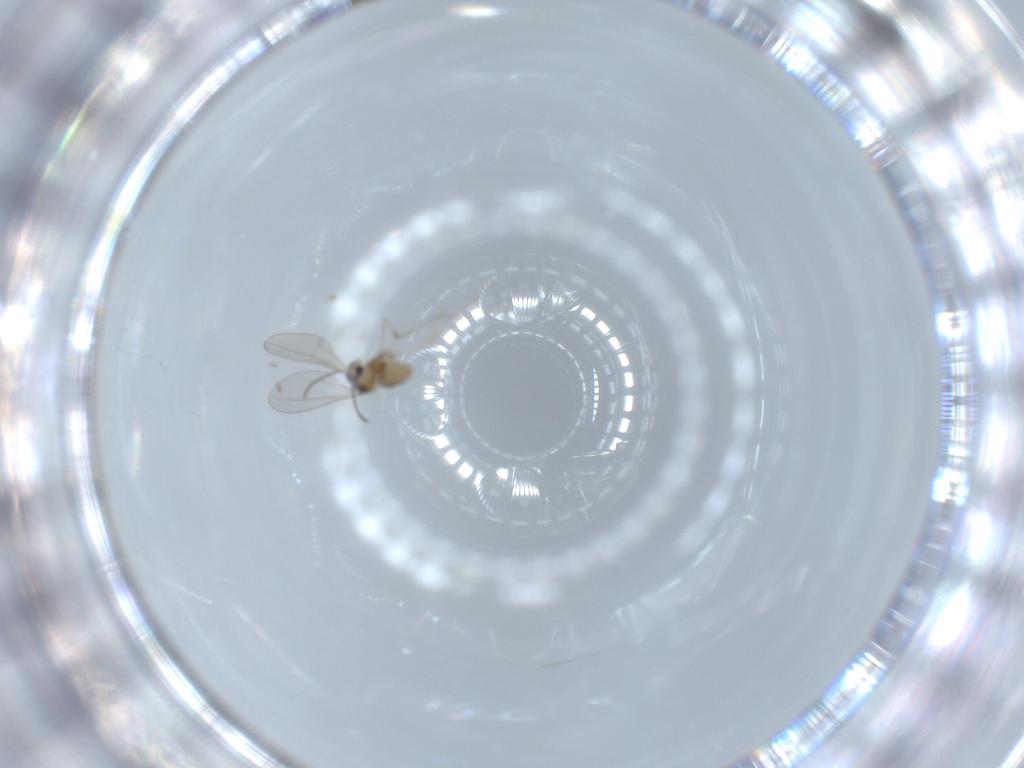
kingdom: Animalia
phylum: Arthropoda
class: Insecta
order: Diptera
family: Cecidomyiidae
